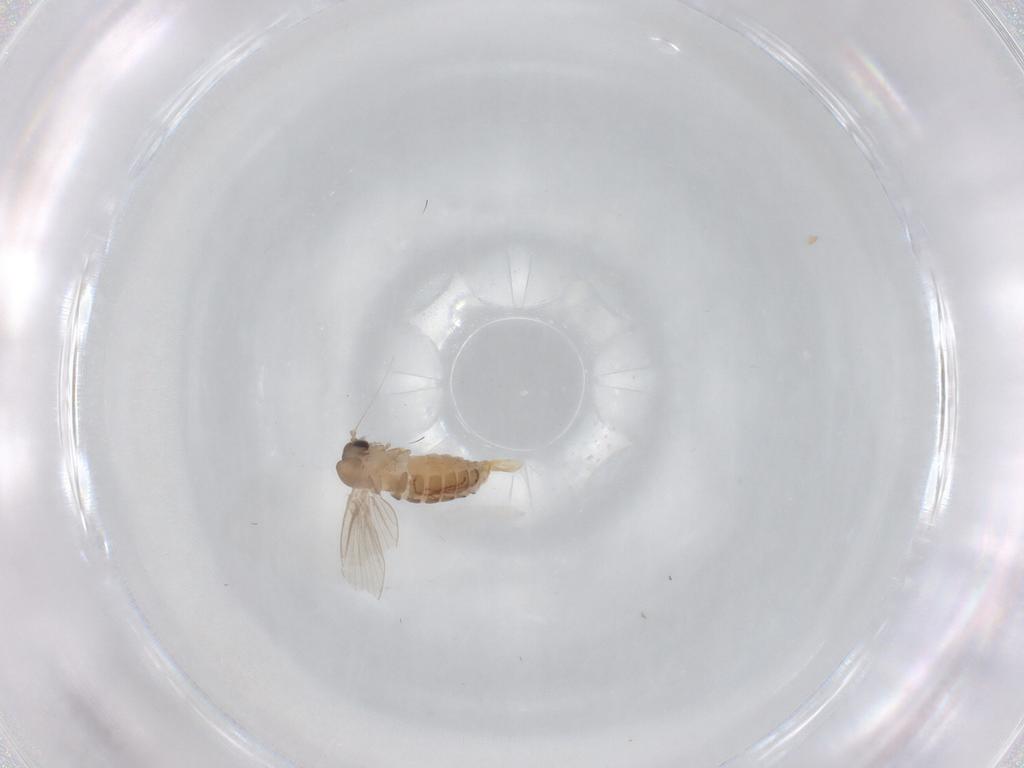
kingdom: Animalia
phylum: Arthropoda
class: Insecta
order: Diptera
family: Psychodidae
